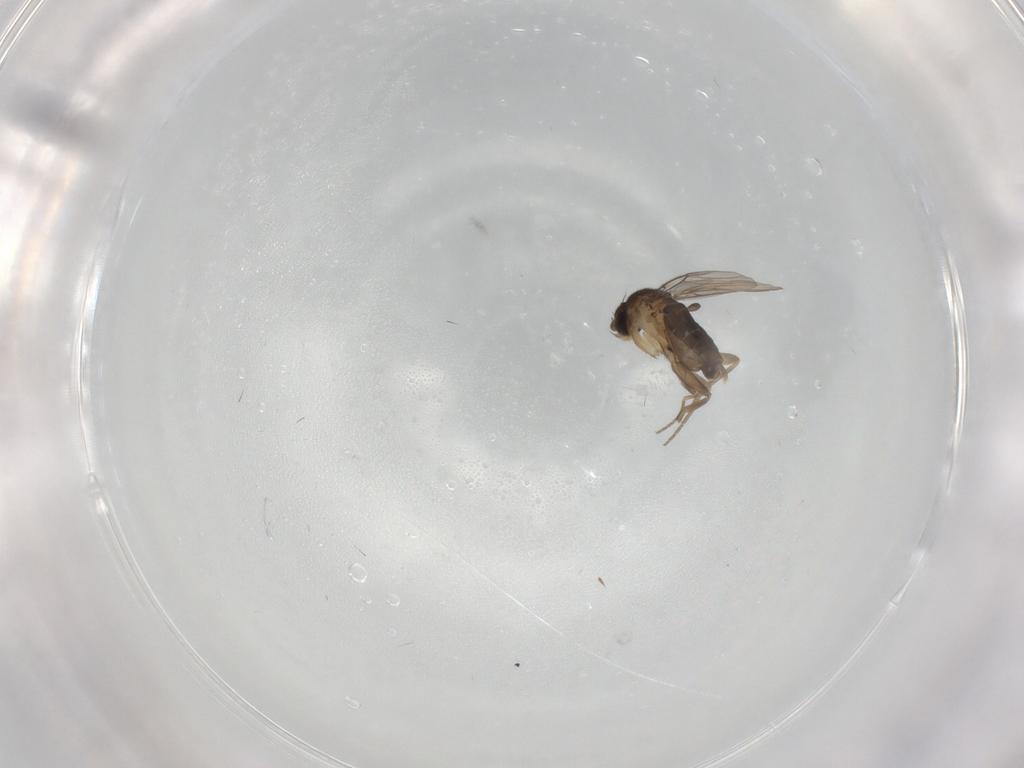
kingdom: Animalia
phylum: Arthropoda
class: Insecta
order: Diptera
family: Phoridae
